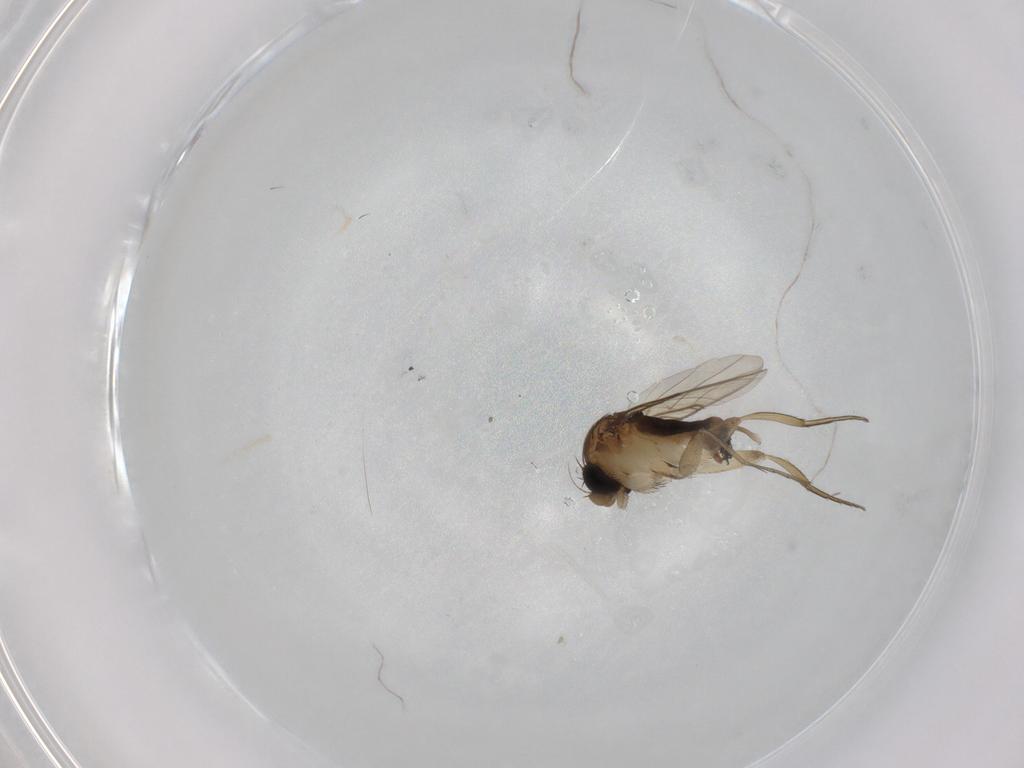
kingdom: Animalia
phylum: Arthropoda
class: Insecta
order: Diptera
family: Phoridae
